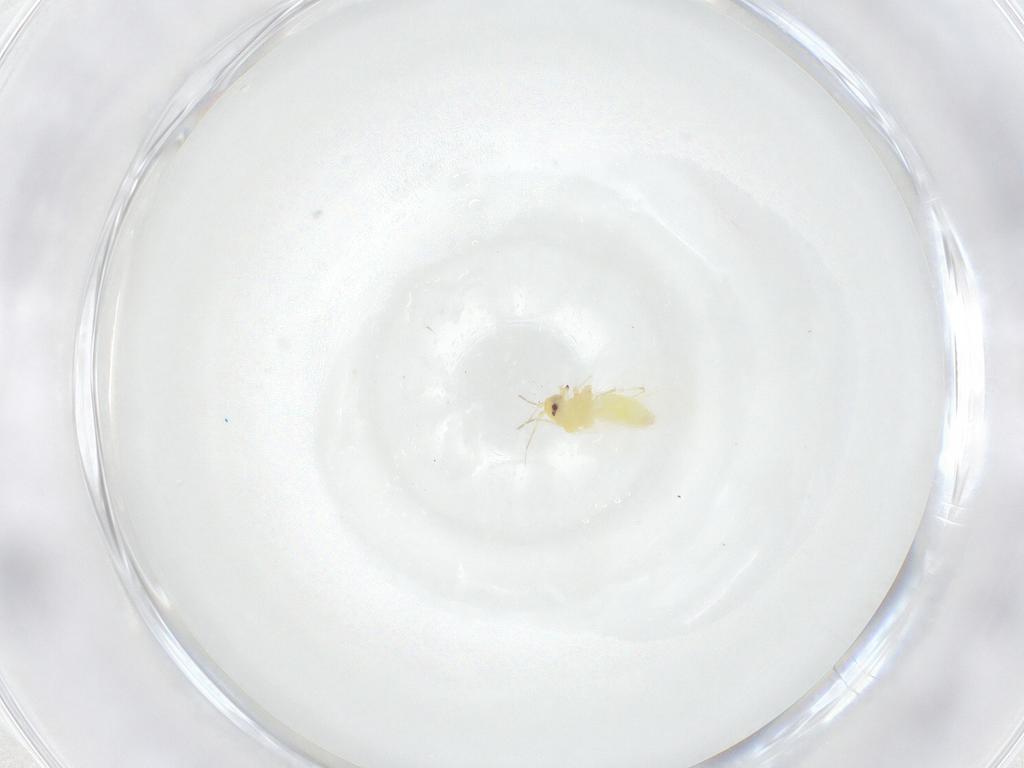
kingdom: Animalia
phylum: Arthropoda
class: Insecta
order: Hemiptera
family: Aleyrodidae
